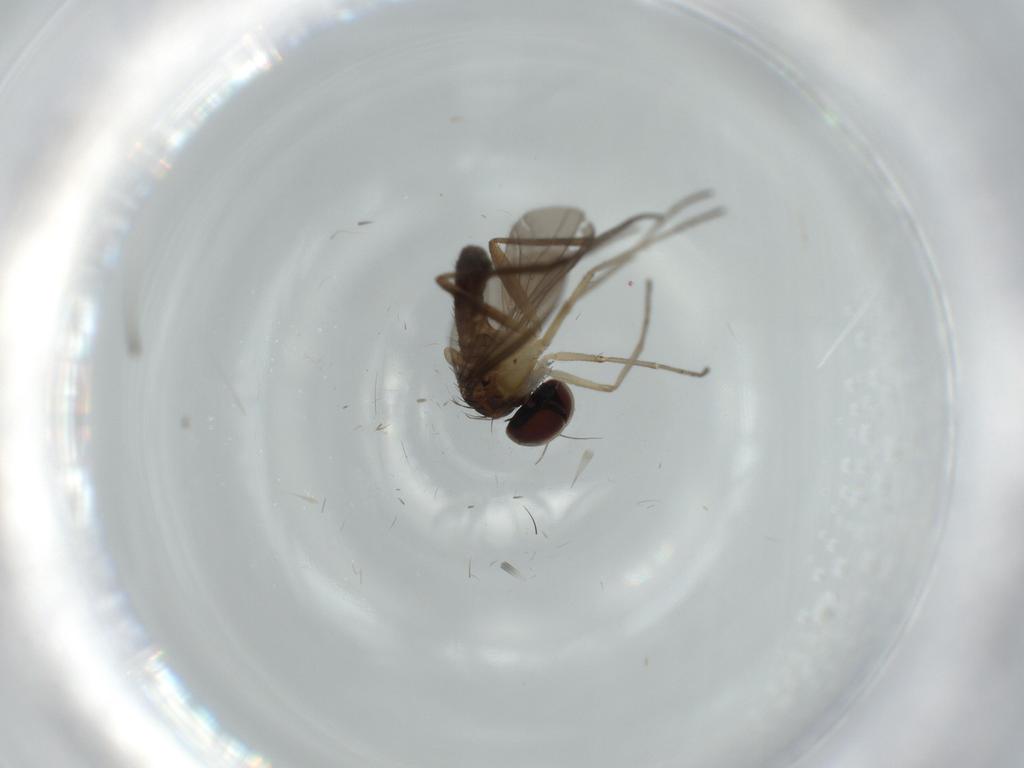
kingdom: Animalia
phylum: Arthropoda
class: Insecta
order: Diptera
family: Dolichopodidae
